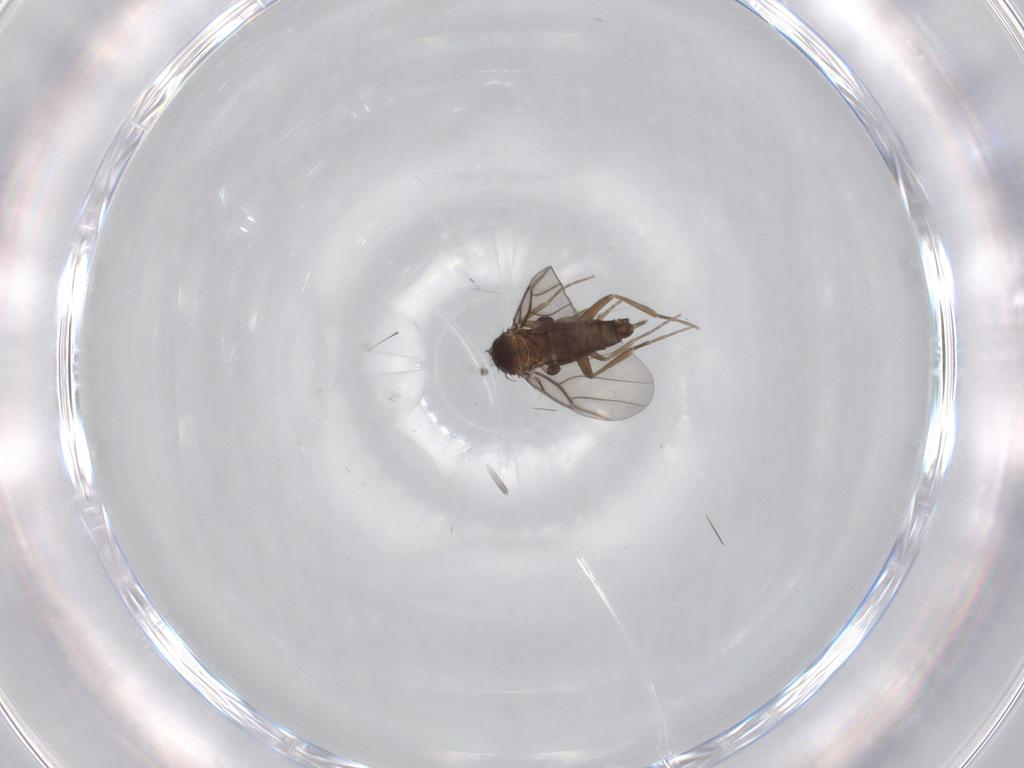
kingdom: Animalia
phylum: Arthropoda
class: Insecta
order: Diptera
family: Phoridae
